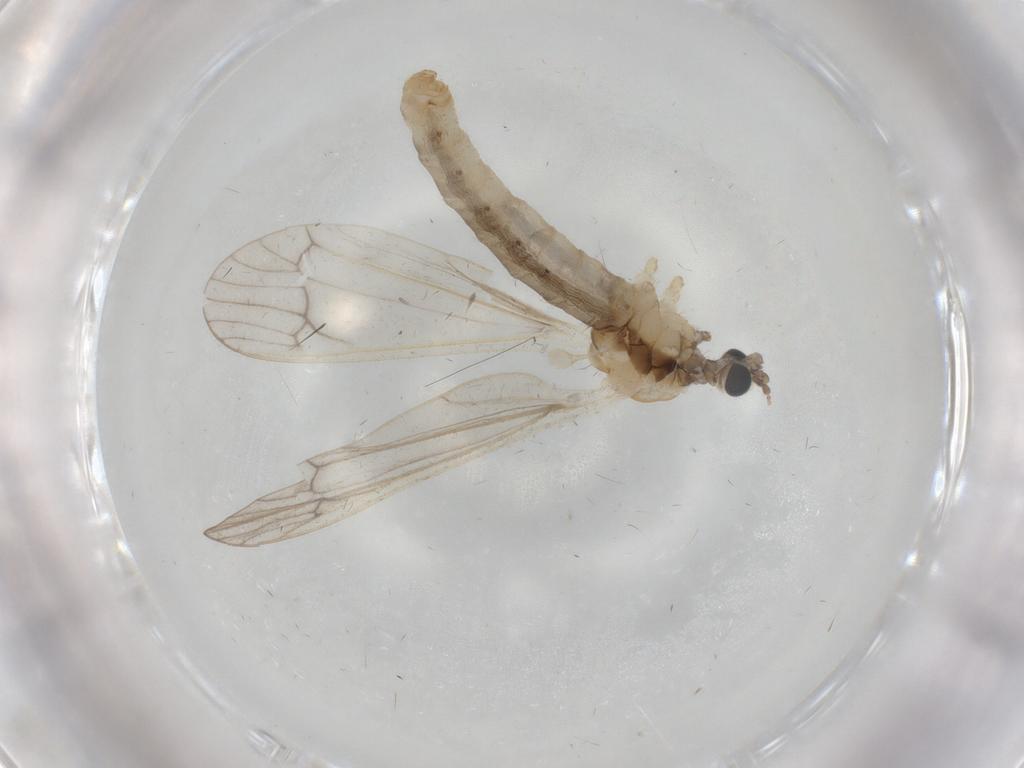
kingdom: Animalia
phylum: Arthropoda
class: Insecta
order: Diptera
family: Cecidomyiidae
